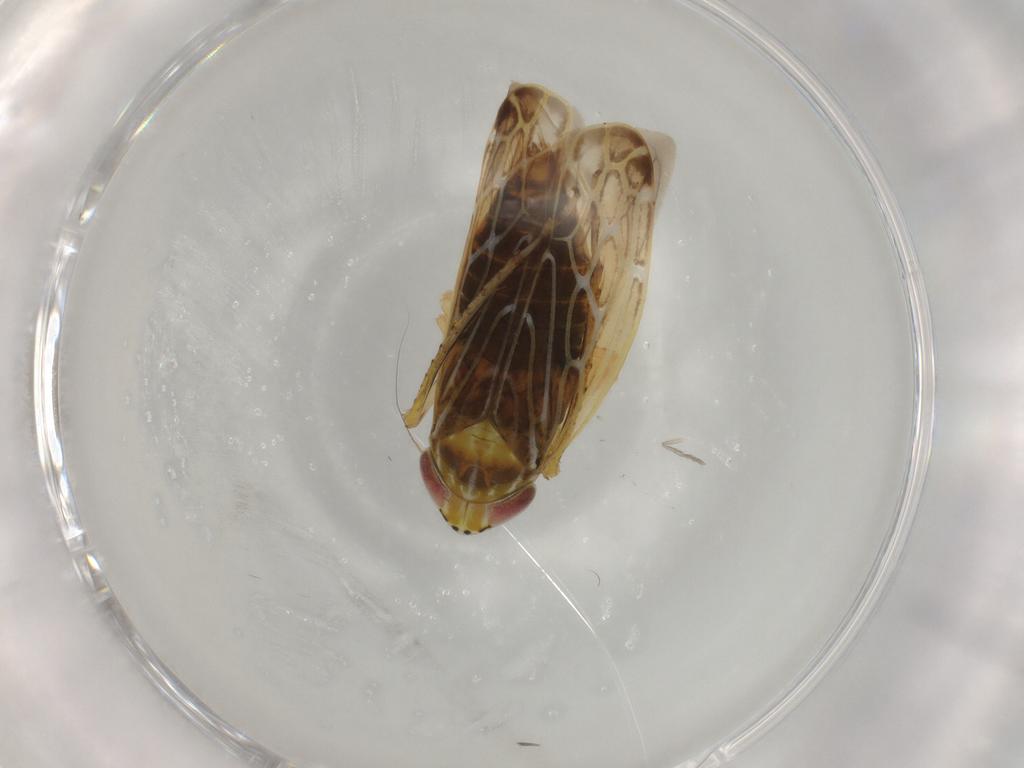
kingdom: Animalia
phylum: Arthropoda
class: Insecta
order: Hemiptera
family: Cicadellidae
